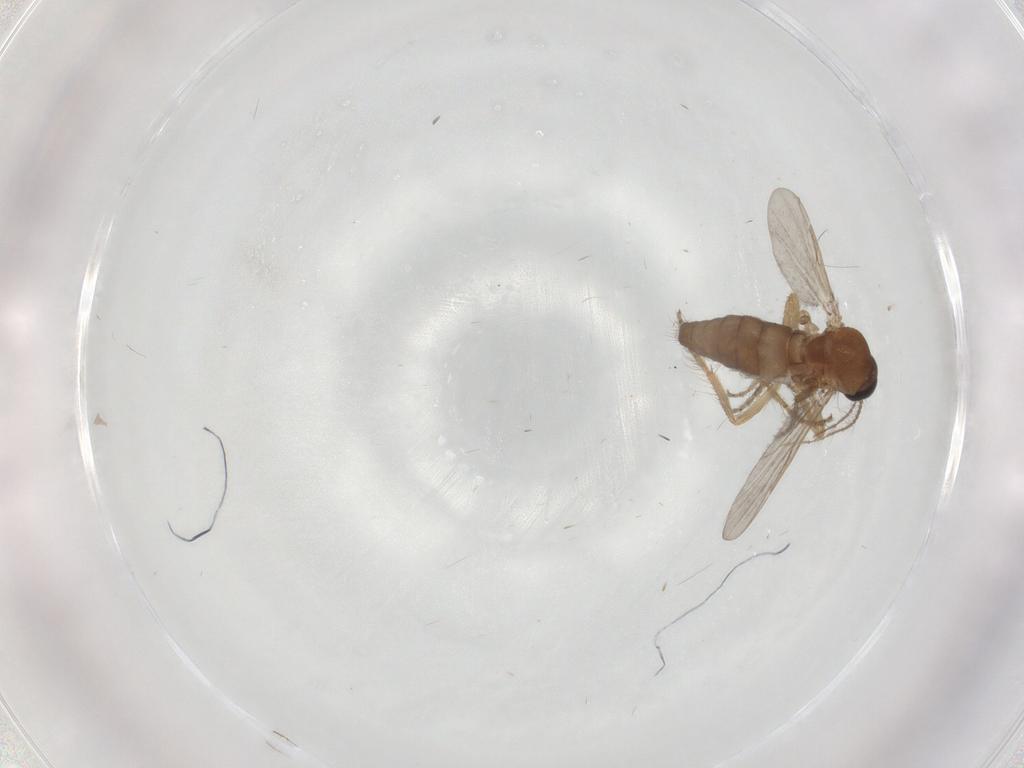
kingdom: Animalia
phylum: Arthropoda
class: Insecta
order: Diptera
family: Ceratopogonidae
